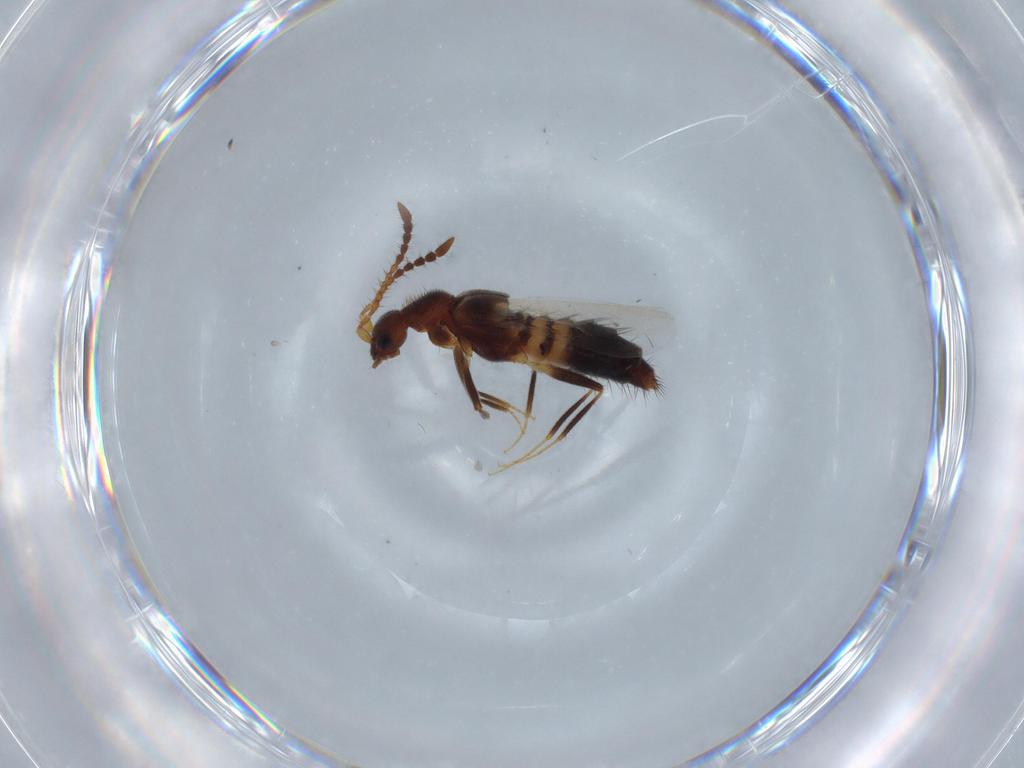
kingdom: Animalia
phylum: Arthropoda
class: Insecta
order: Coleoptera
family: Staphylinidae
